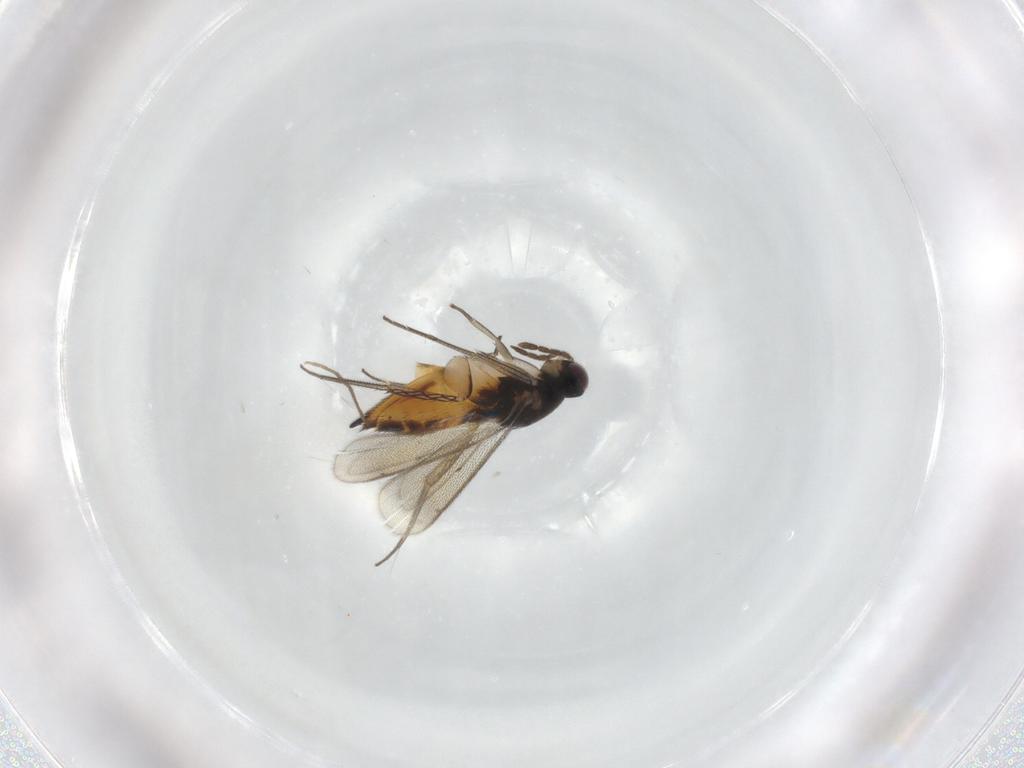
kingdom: Animalia
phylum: Arthropoda
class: Insecta
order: Hymenoptera
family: Eulophidae
